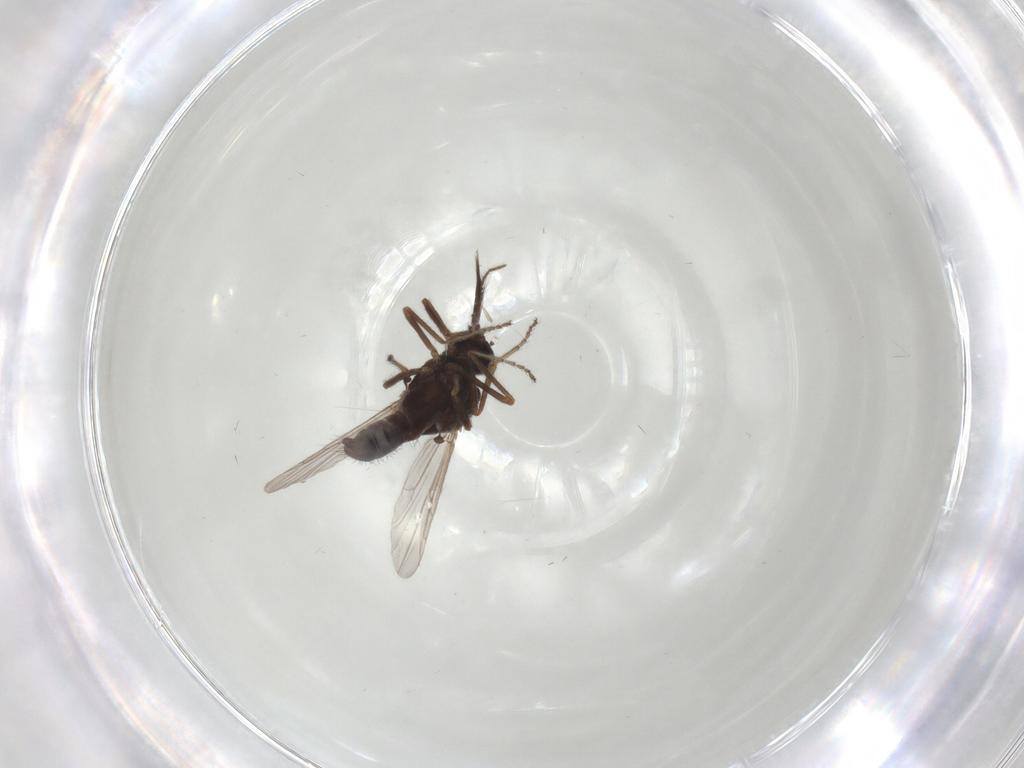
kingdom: Animalia
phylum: Arthropoda
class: Insecta
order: Diptera
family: Ceratopogonidae
